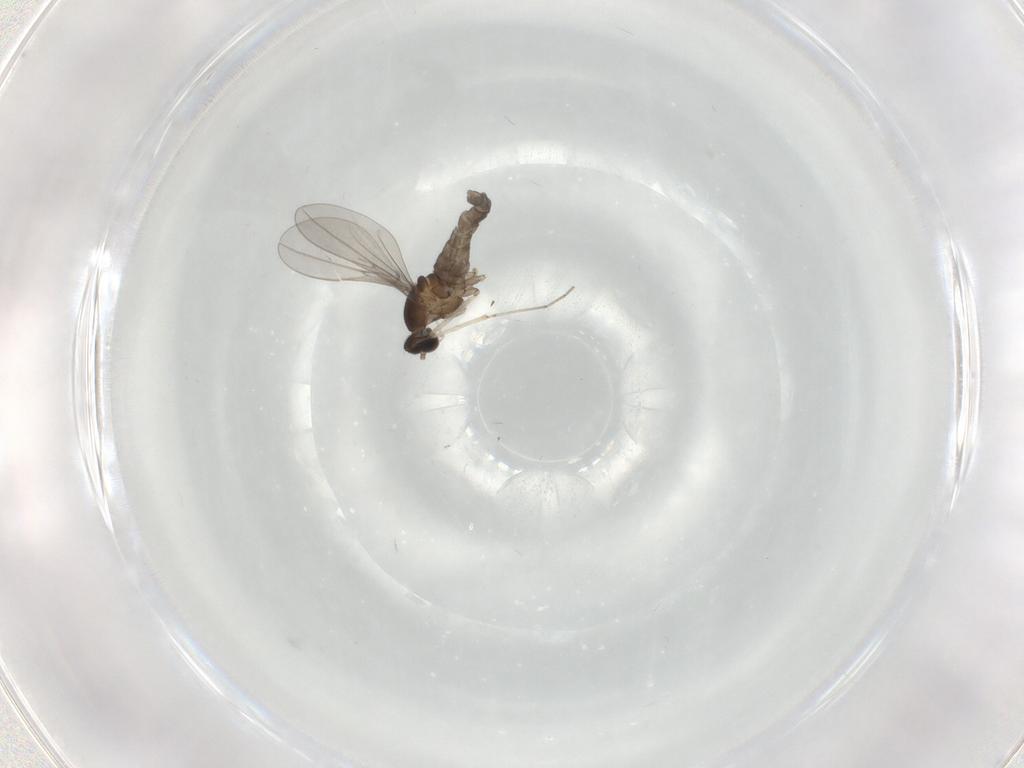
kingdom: Animalia
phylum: Arthropoda
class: Insecta
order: Diptera
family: Cecidomyiidae
